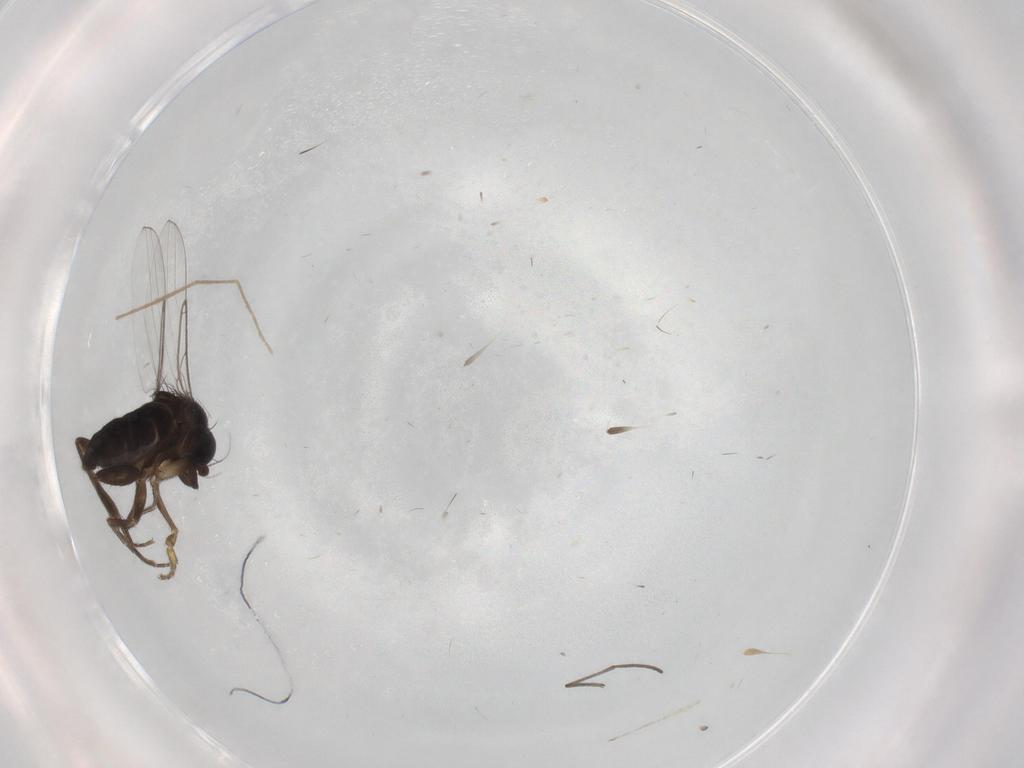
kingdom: Animalia
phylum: Arthropoda
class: Insecta
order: Diptera
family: Phoridae
